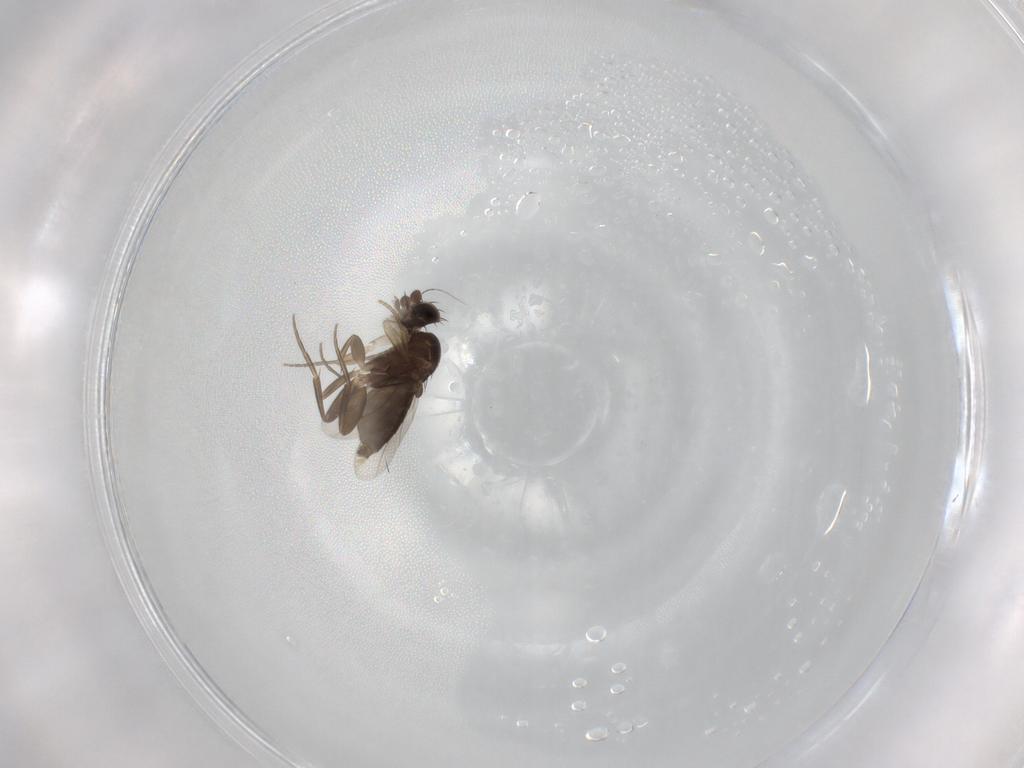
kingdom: Animalia
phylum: Arthropoda
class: Insecta
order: Diptera
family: Phoridae
